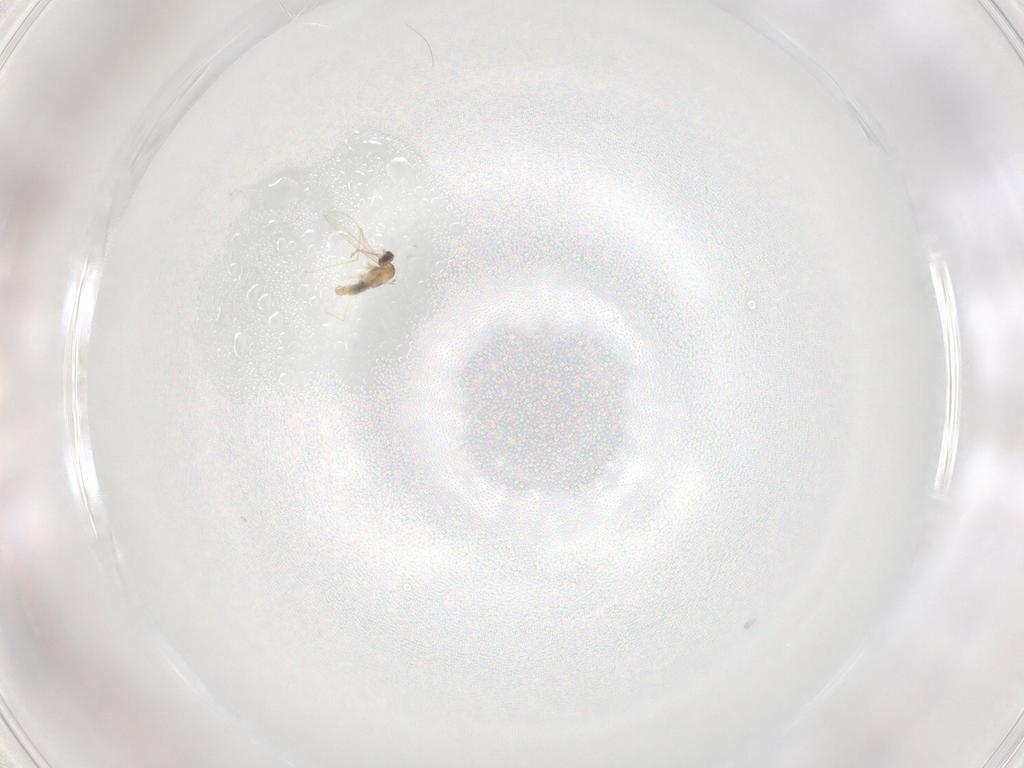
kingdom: Animalia
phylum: Arthropoda
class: Insecta
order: Diptera
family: Cecidomyiidae
